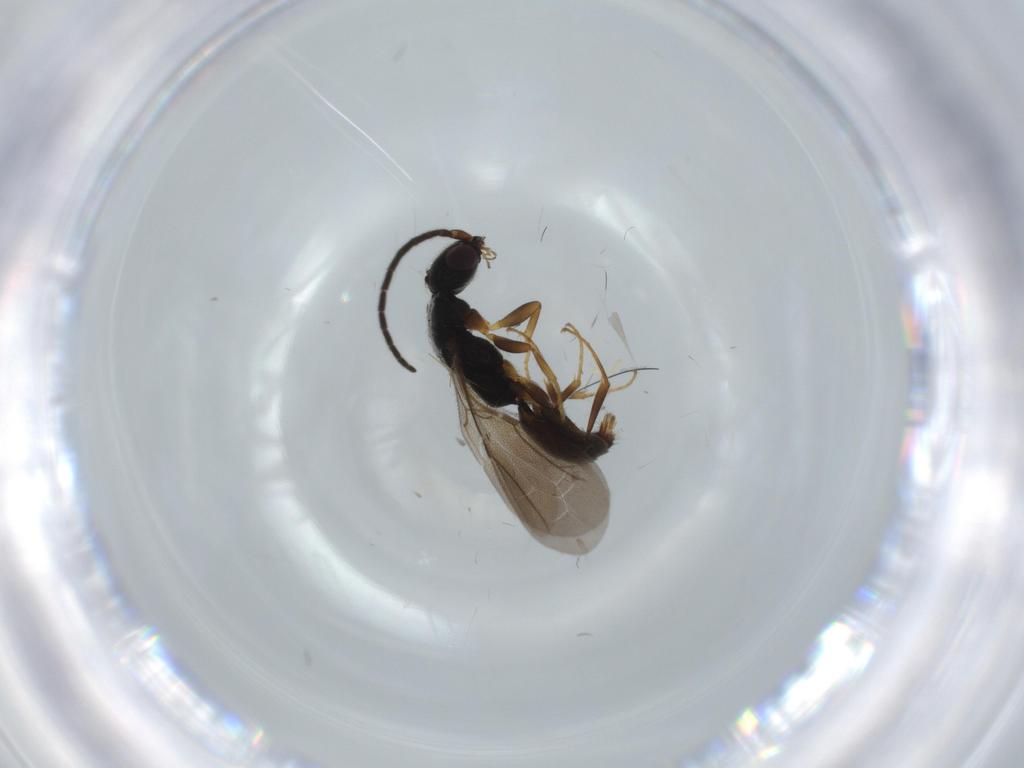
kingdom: Animalia
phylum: Arthropoda
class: Insecta
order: Hymenoptera
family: Bethylidae
